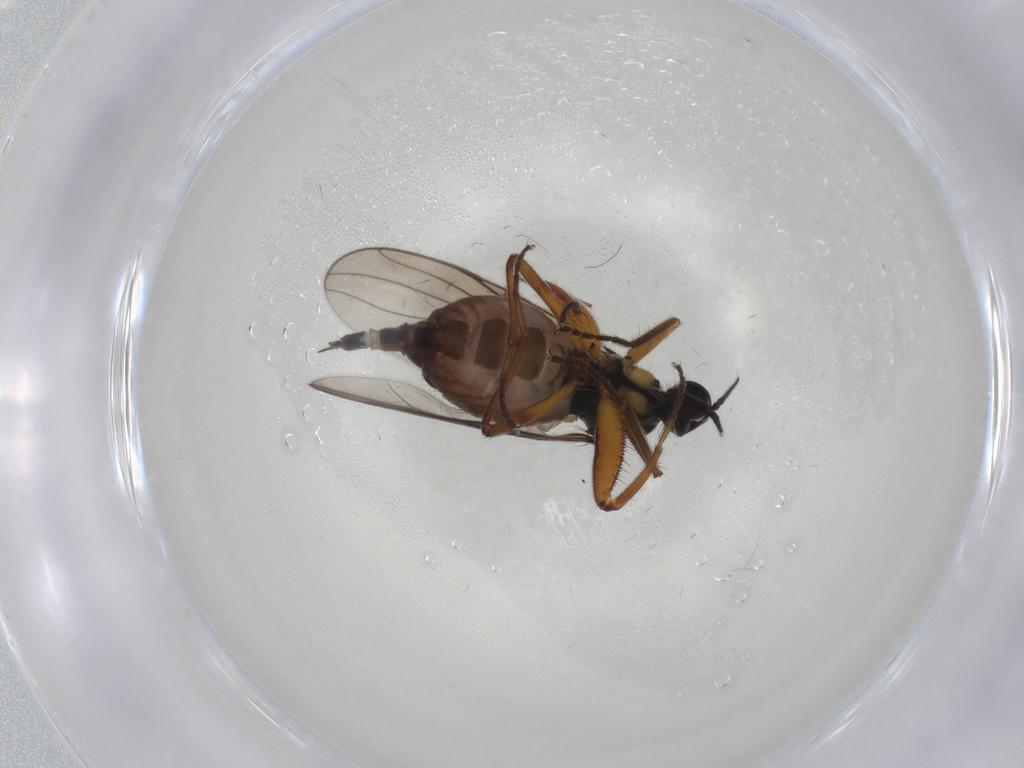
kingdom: Animalia
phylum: Arthropoda
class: Insecta
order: Diptera
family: Hybotidae
